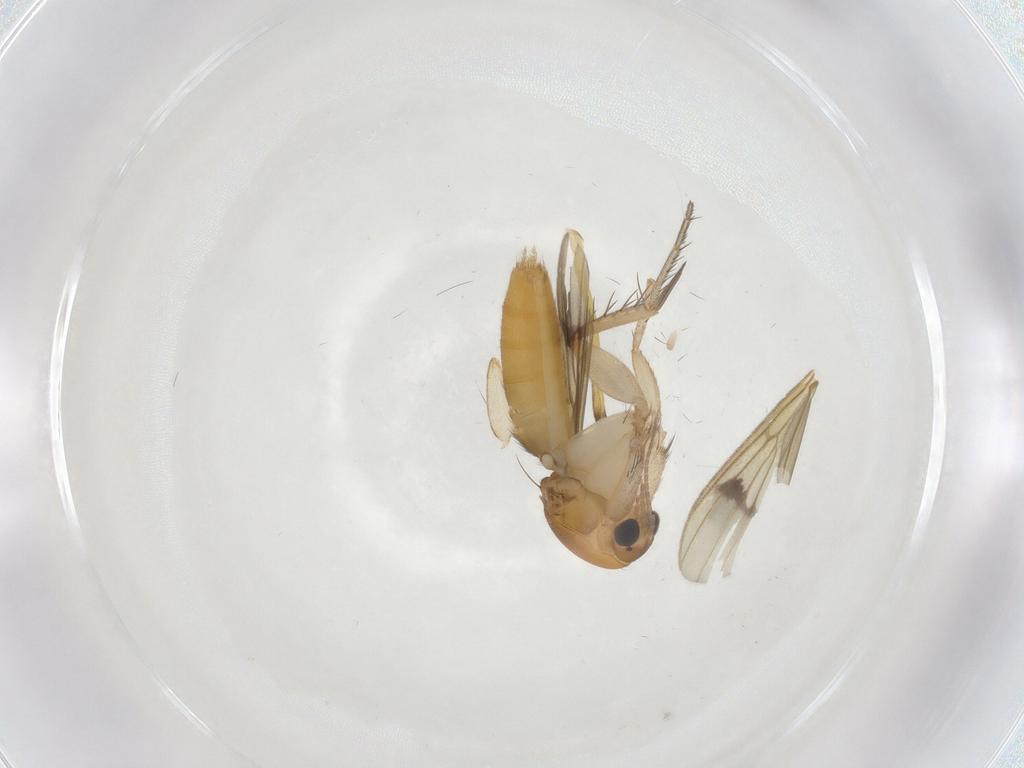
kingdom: Animalia
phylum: Arthropoda
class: Insecta
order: Diptera
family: Mycetophilidae
